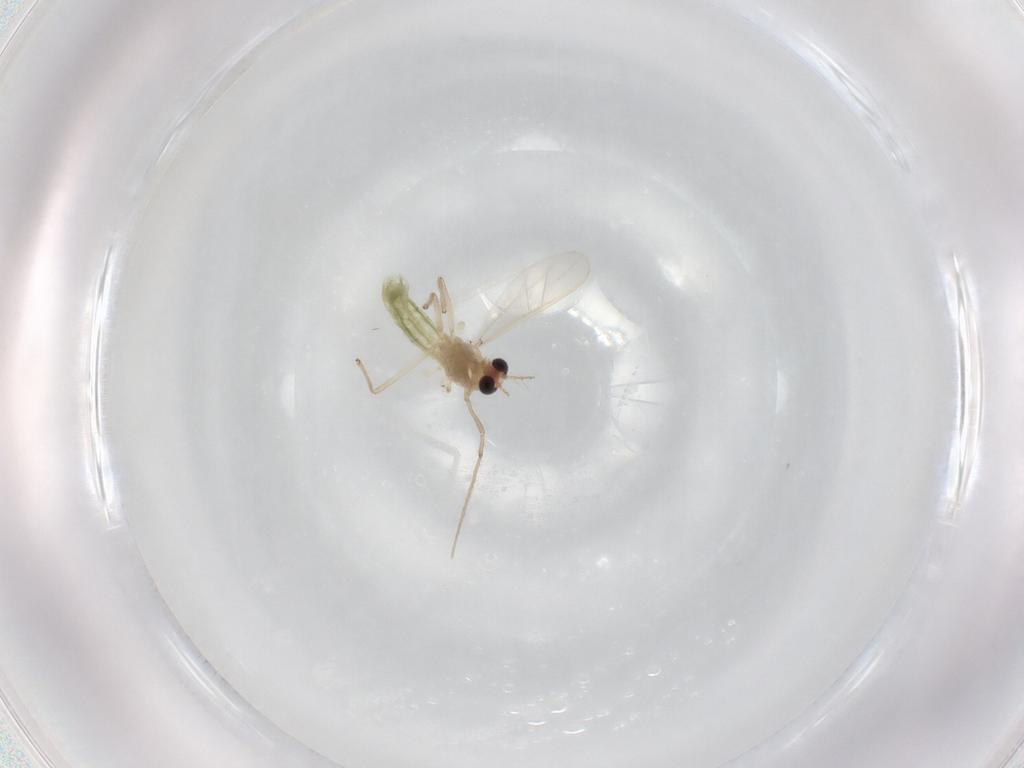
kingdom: Animalia
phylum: Arthropoda
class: Insecta
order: Diptera
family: Chironomidae
